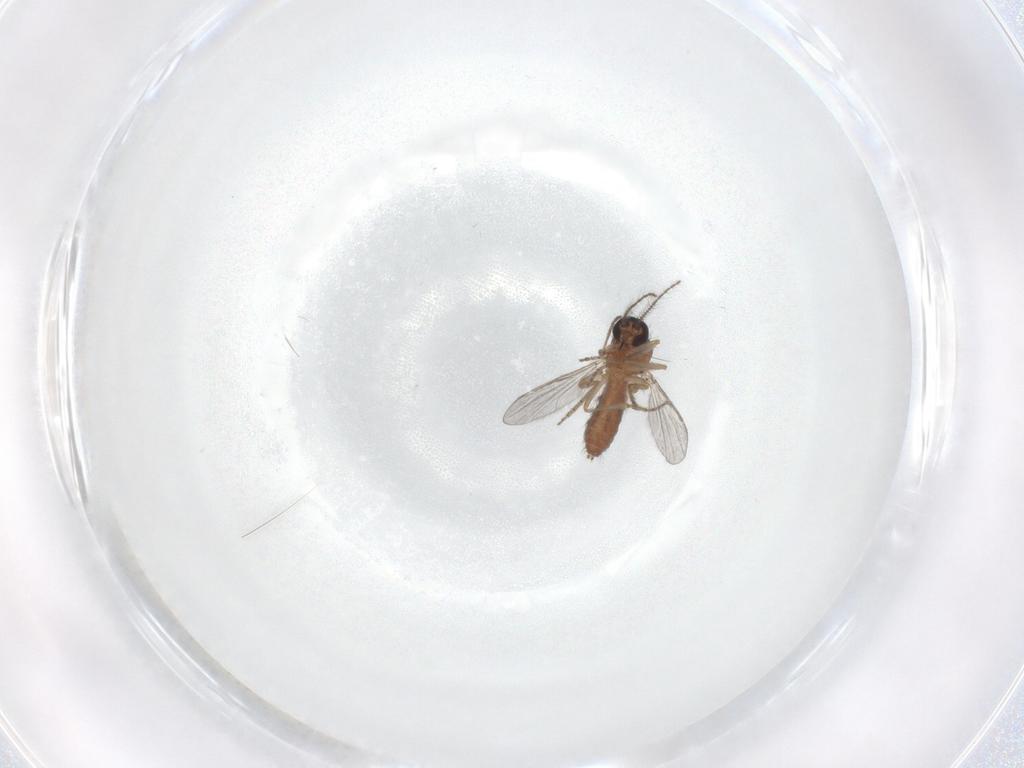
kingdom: Animalia
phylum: Arthropoda
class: Insecta
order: Diptera
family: Ceratopogonidae
